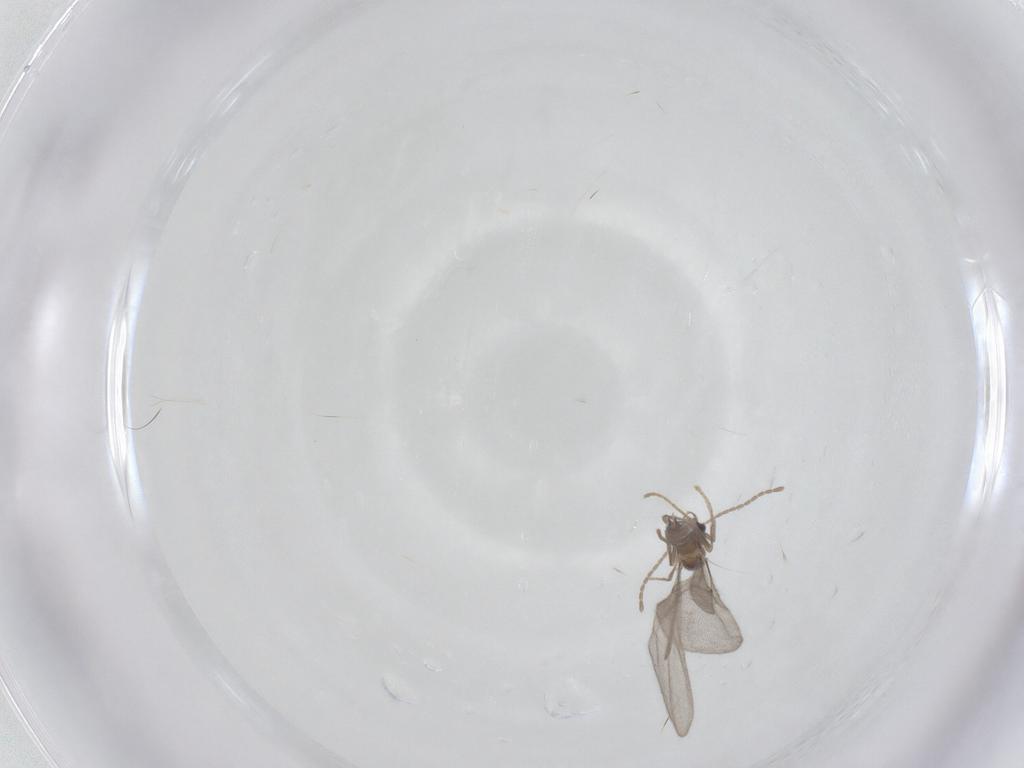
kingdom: Animalia
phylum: Arthropoda
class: Insecta
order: Hymenoptera
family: Formicidae
